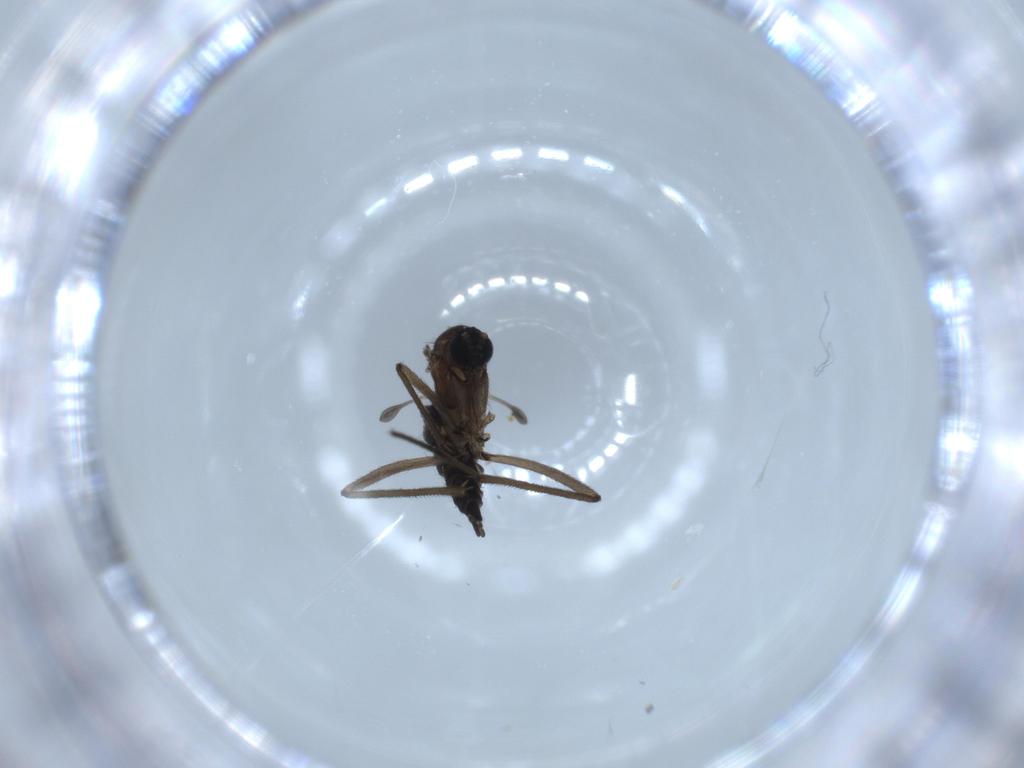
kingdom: Animalia
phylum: Arthropoda
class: Insecta
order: Diptera
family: Sciaridae
